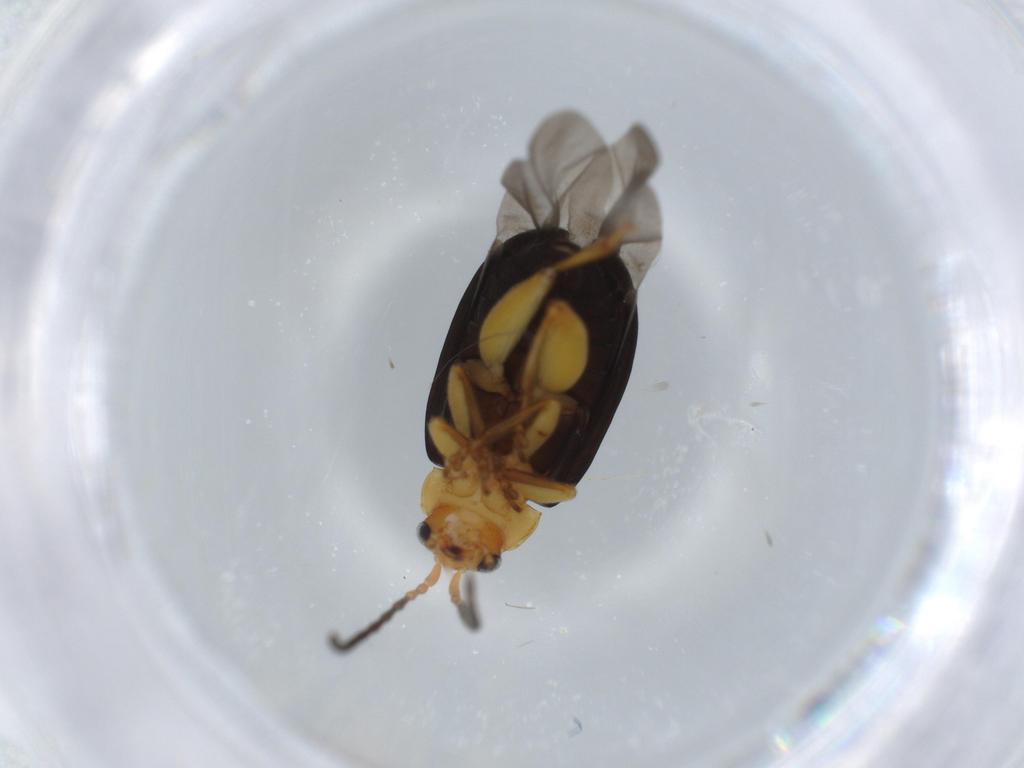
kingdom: Animalia
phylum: Arthropoda
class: Insecta
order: Coleoptera
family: Chrysomelidae
